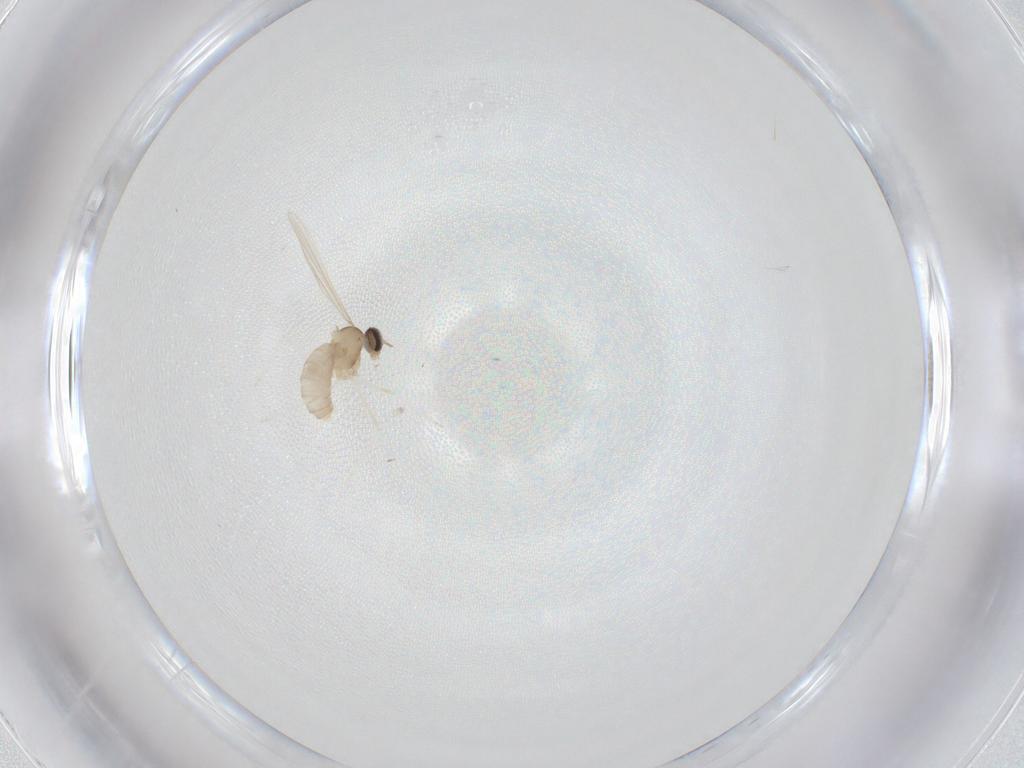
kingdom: Animalia
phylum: Arthropoda
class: Insecta
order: Diptera
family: Cecidomyiidae
